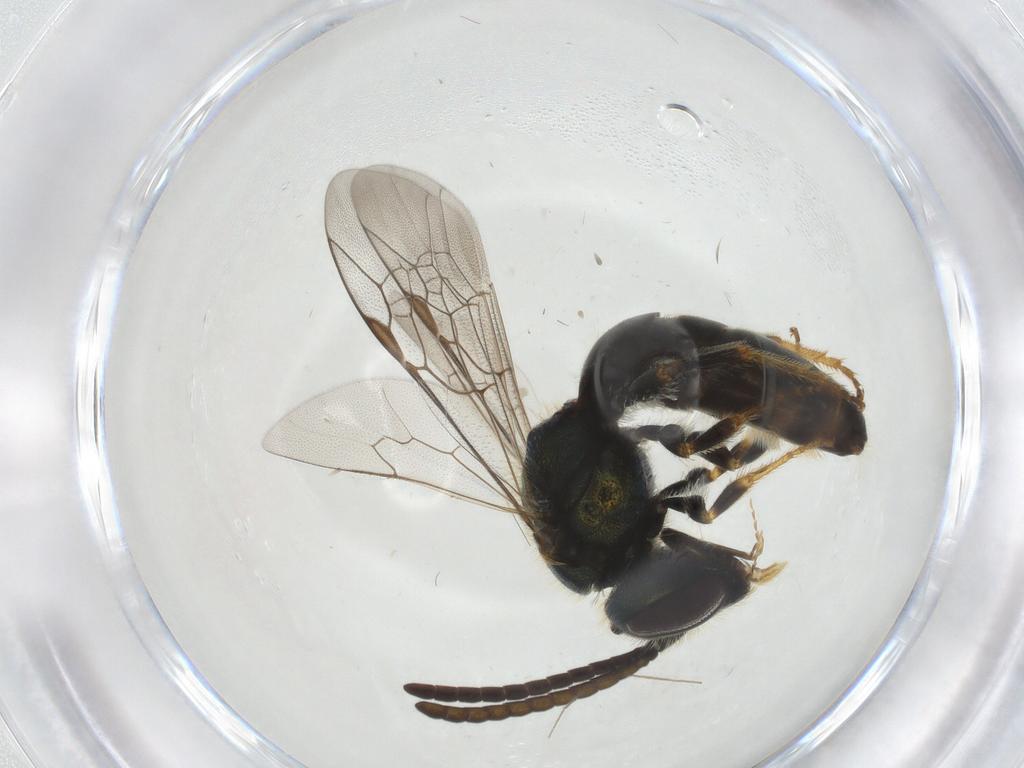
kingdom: Animalia
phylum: Arthropoda
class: Insecta
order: Hymenoptera
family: Halictidae
